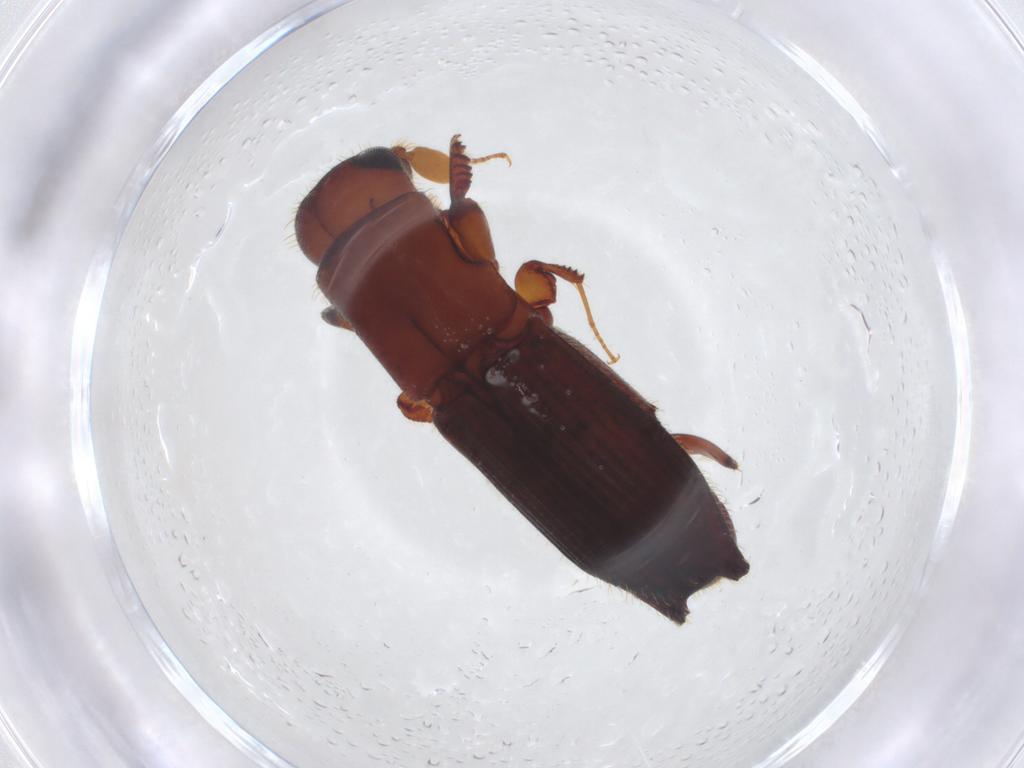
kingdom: Animalia
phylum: Arthropoda
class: Insecta
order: Coleoptera
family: Curculionidae
